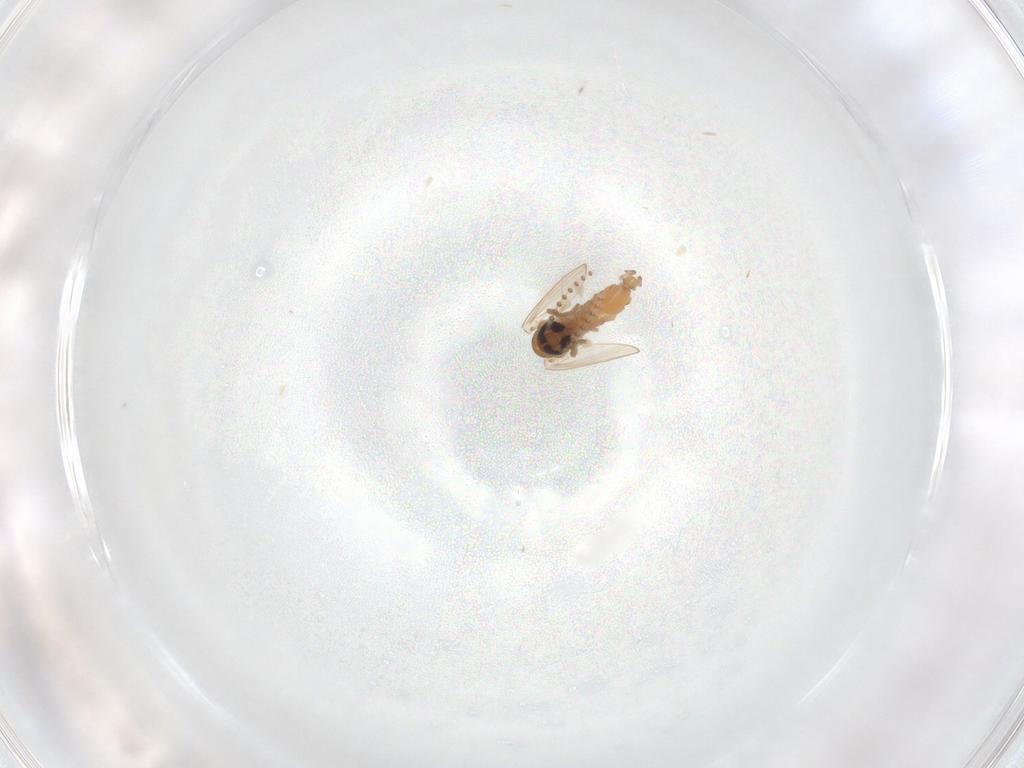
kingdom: Animalia
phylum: Arthropoda
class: Insecta
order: Diptera
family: Psychodidae
